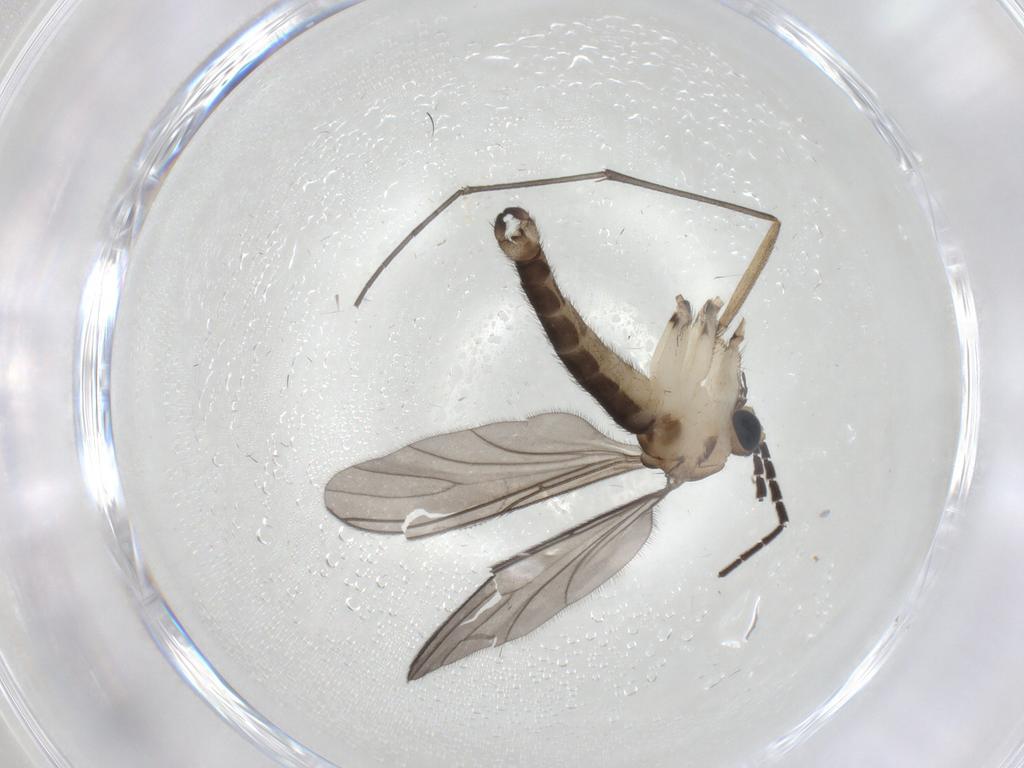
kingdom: Animalia
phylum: Arthropoda
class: Insecta
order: Diptera
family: Sciaridae
